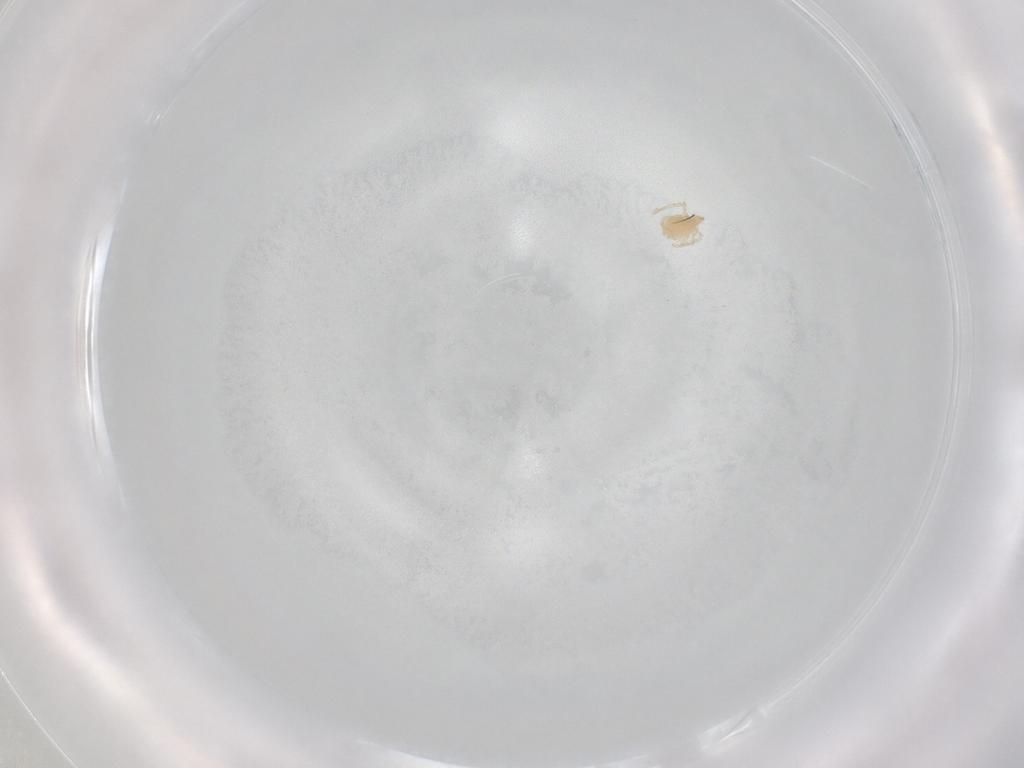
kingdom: Animalia
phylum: Arthropoda
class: Arachnida
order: Trombidiformes
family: Erythraeidae
